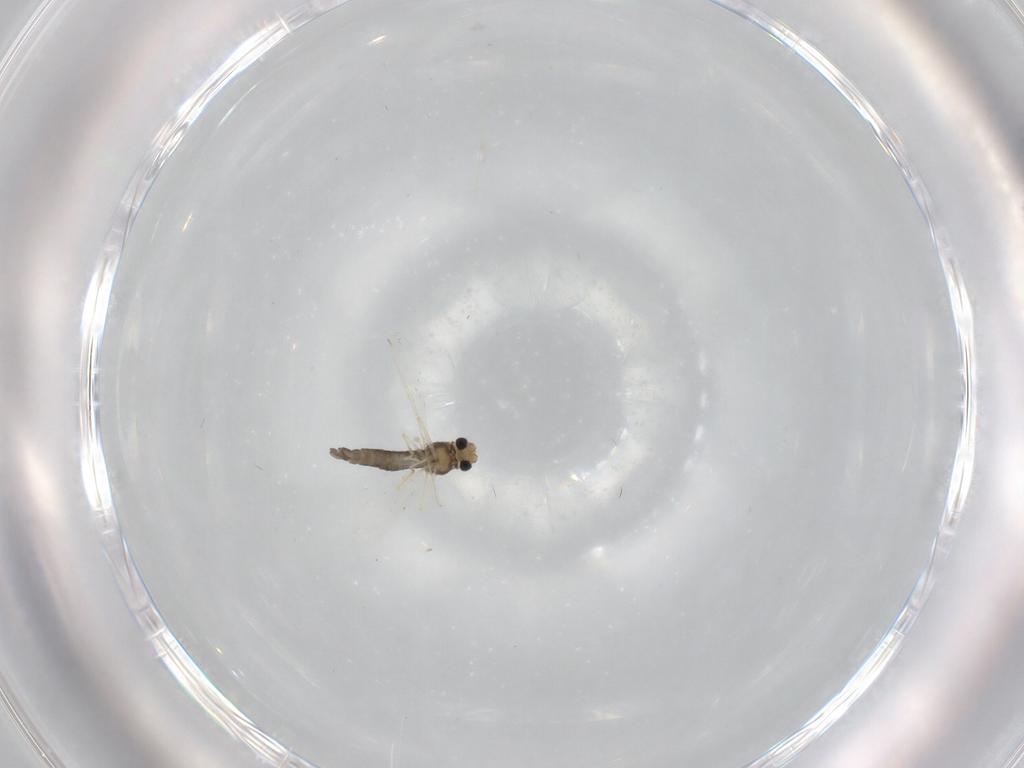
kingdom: Animalia
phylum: Arthropoda
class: Insecta
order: Diptera
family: Chironomidae
